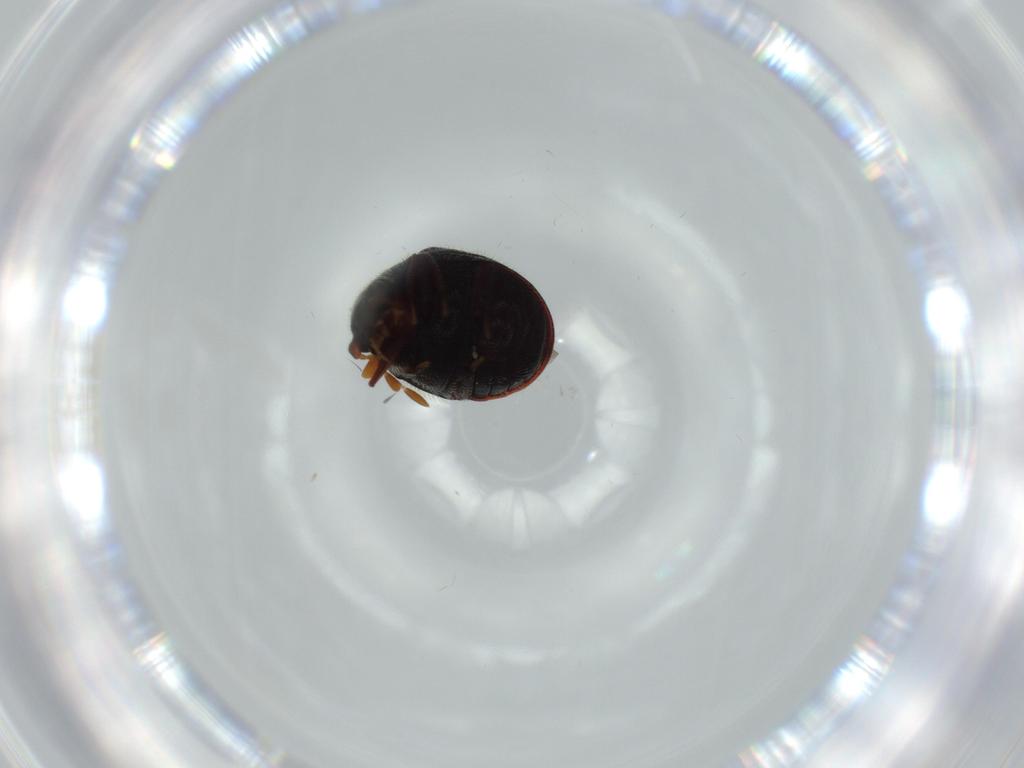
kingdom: Animalia
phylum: Arthropoda
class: Insecta
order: Coleoptera
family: Ptinidae
